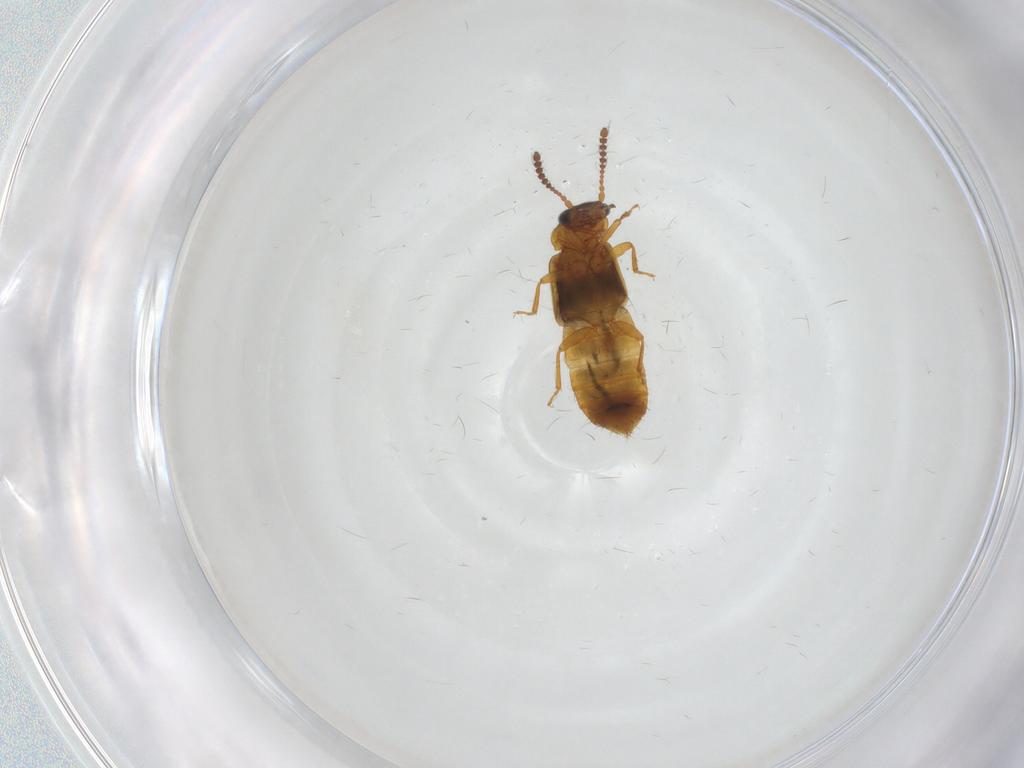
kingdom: Animalia
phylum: Arthropoda
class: Insecta
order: Coleoptera
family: Staphylinidae
